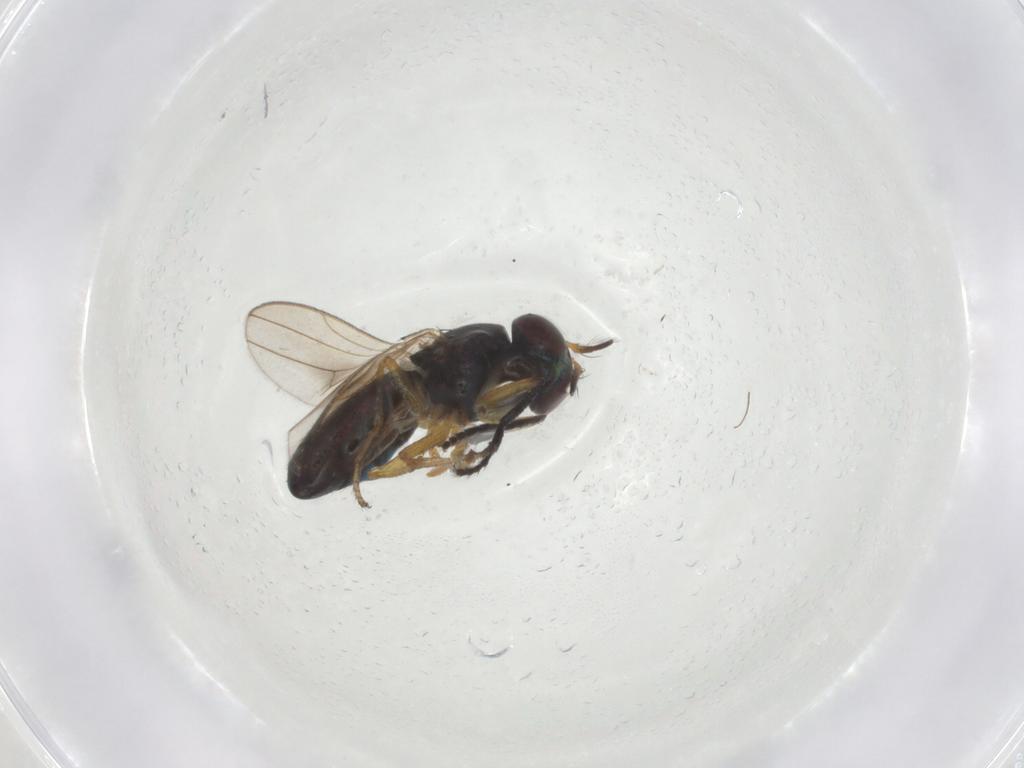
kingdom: Animalia
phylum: Arthropoda
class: Insecta
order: Diptera
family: Ephydridae
